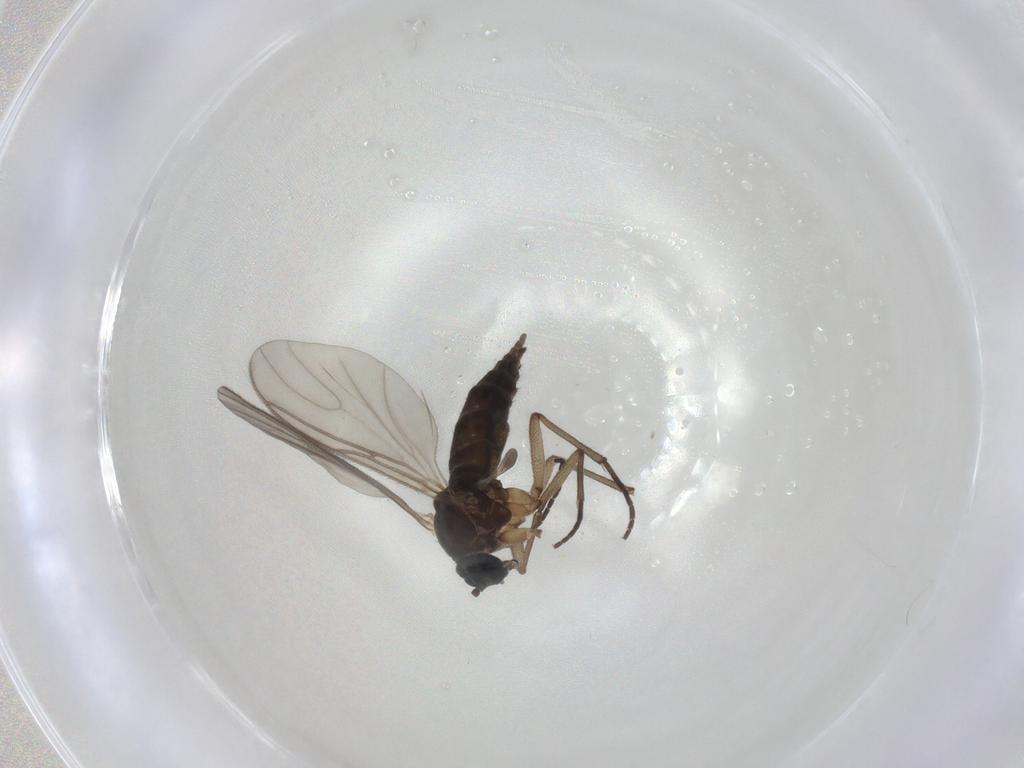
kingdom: Animalia
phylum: Arthropoda
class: Insecta
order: Diptera
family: Sciaridae
